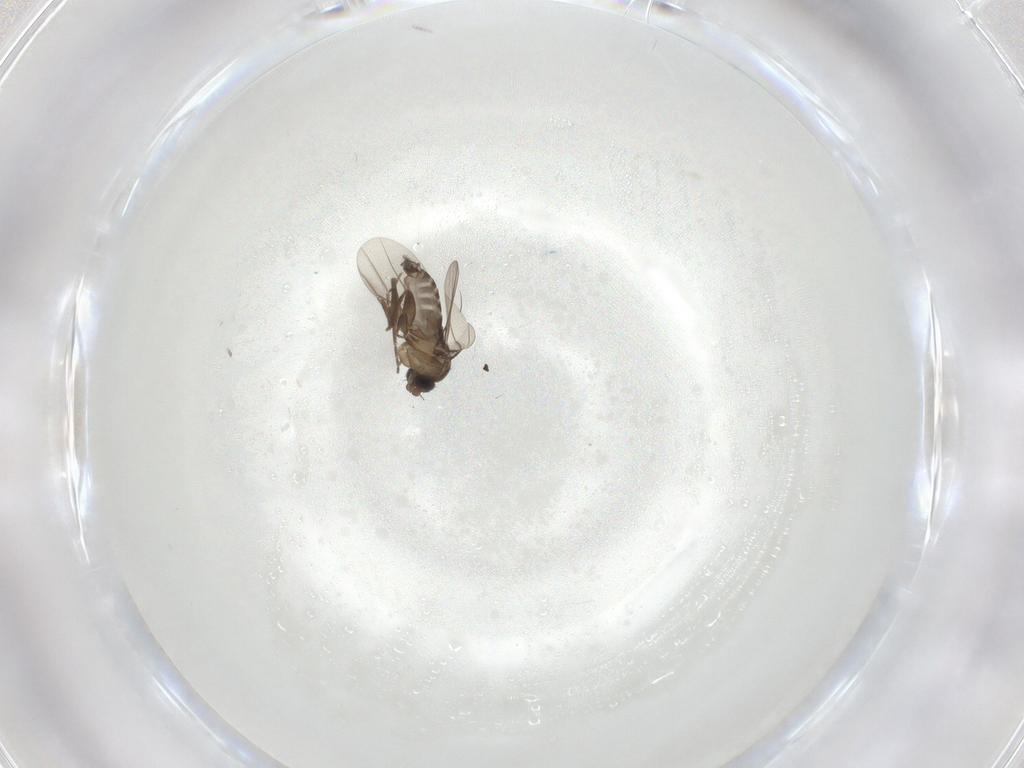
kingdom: Animalia
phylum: Arthropoda
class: Insecta
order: Diptera
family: Phoridae
